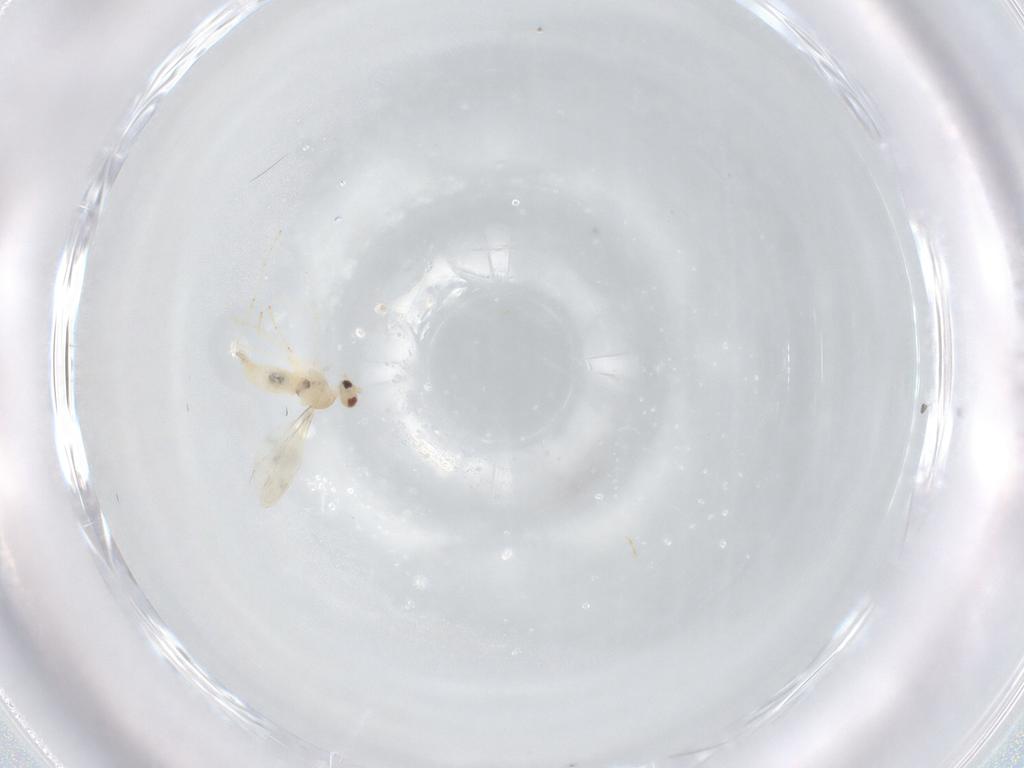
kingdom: Animalia
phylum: Arthropoda
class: Insecta
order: Diptera
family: Cecidomyiidae
